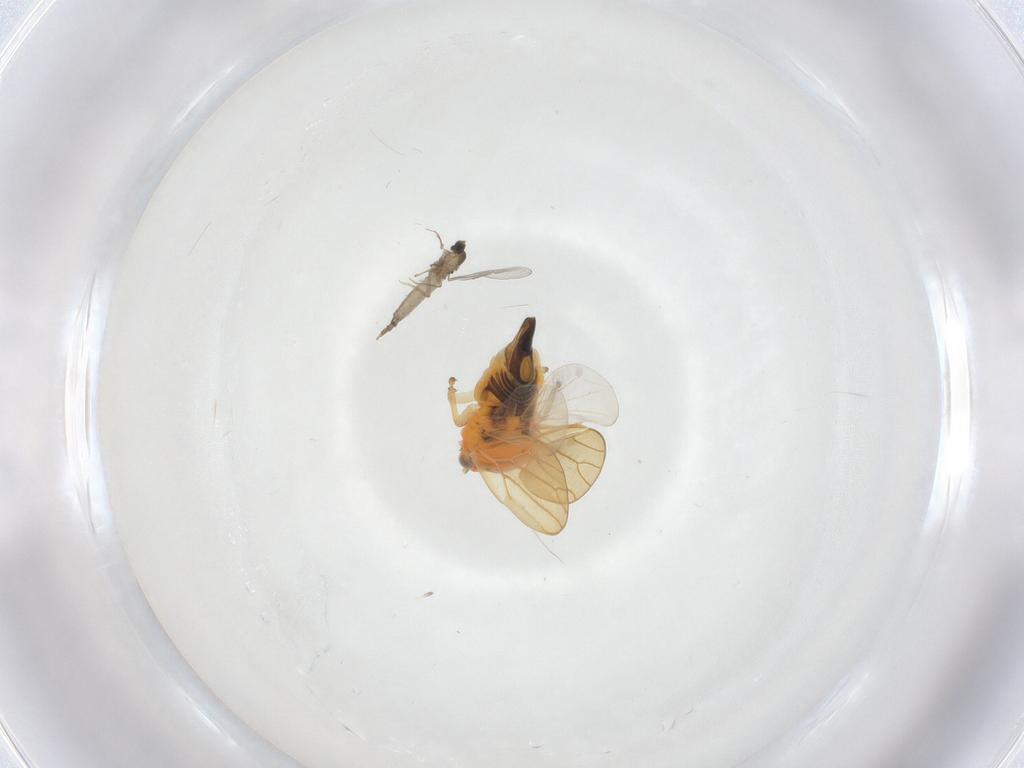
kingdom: Animalia
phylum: Arthropoda
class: Insecta
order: Diptera
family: Cecidomyiidae
